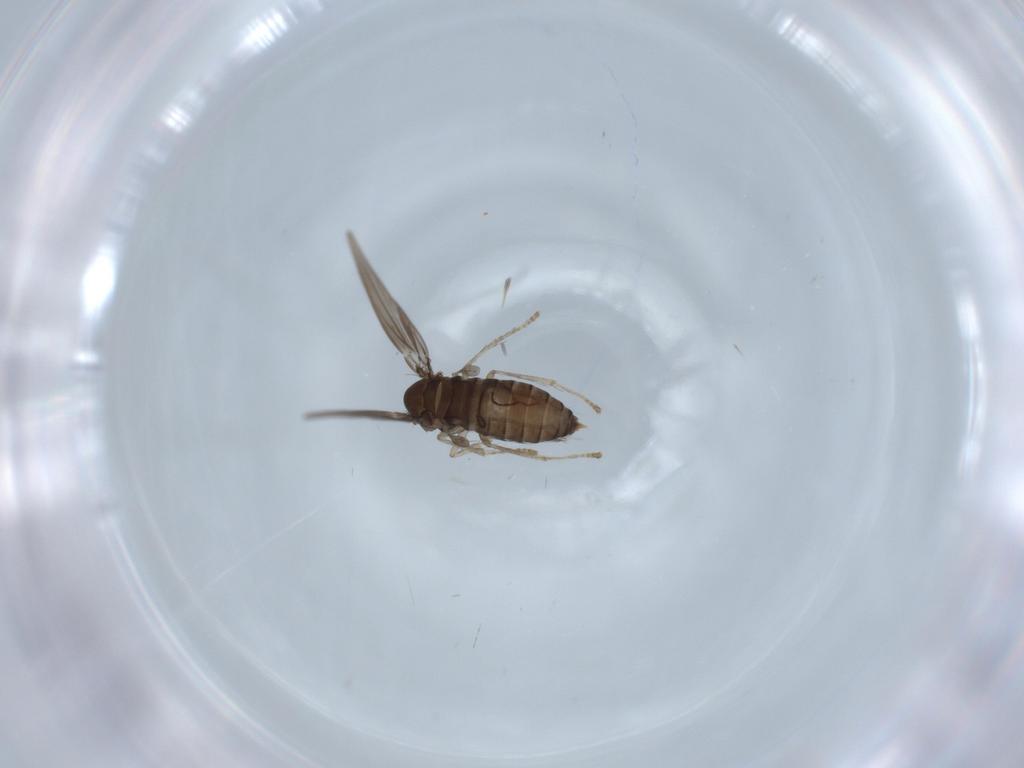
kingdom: Animalia
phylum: Arthropoda
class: Insecta
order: Diptera
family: Psychodidae
